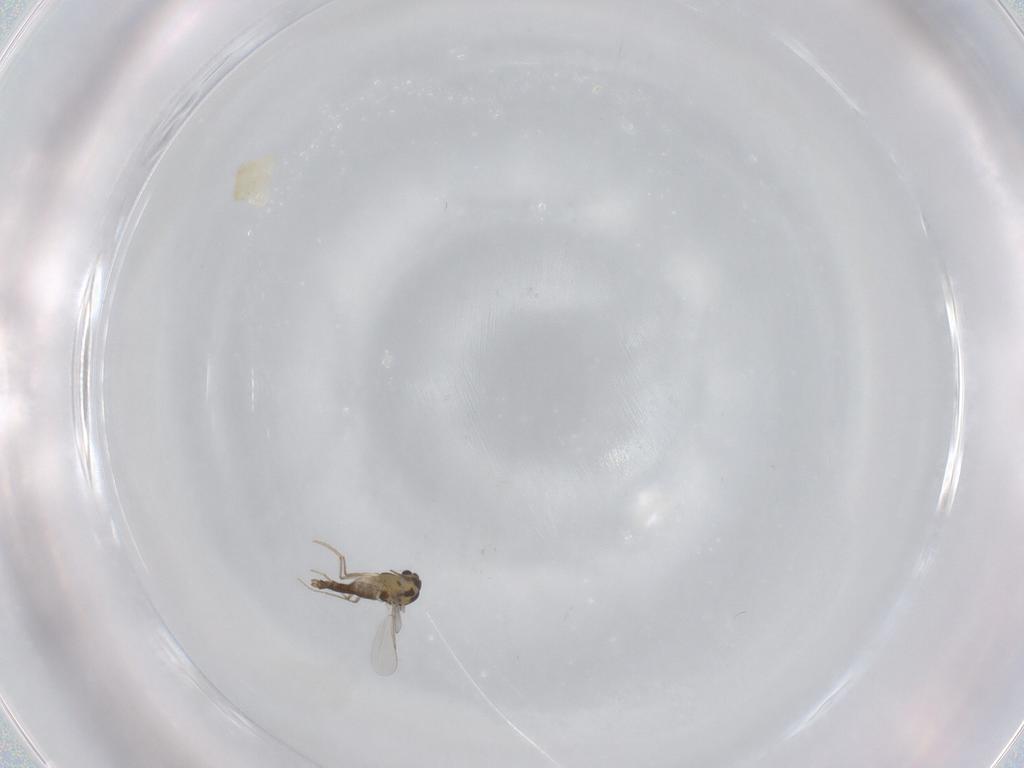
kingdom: Animalia
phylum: Arthropoda
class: Insecta
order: Diptera
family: Chironomidae
